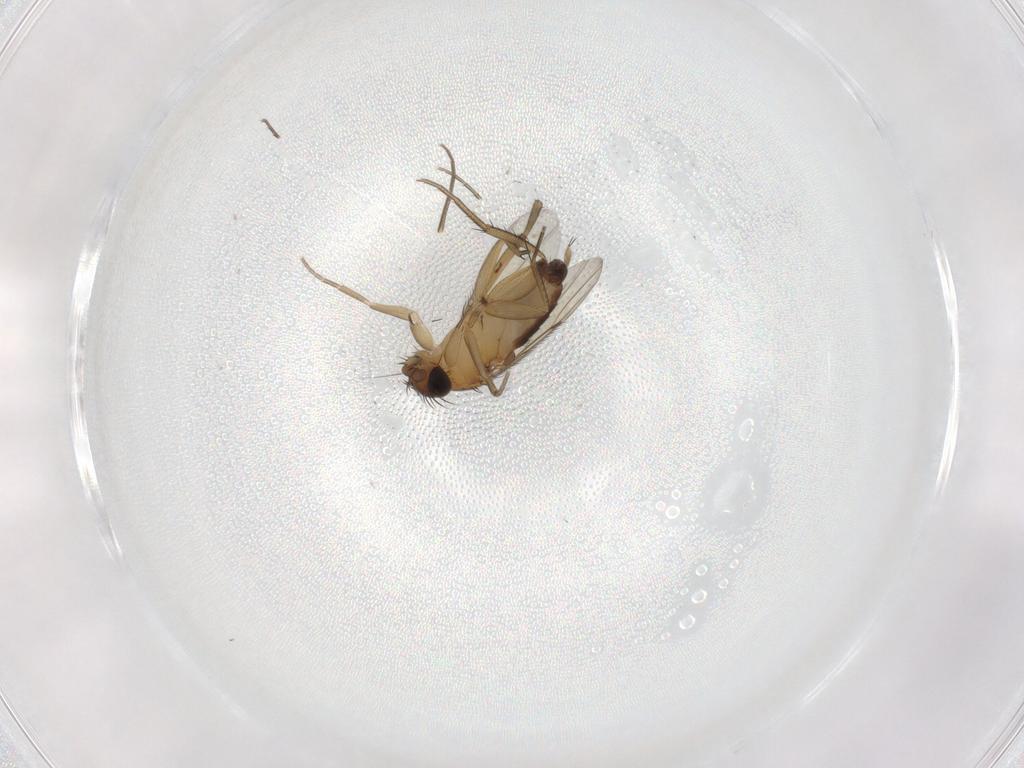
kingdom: Animalia
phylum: Arthropoda
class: Insecta
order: Diptera
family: Phoridae
